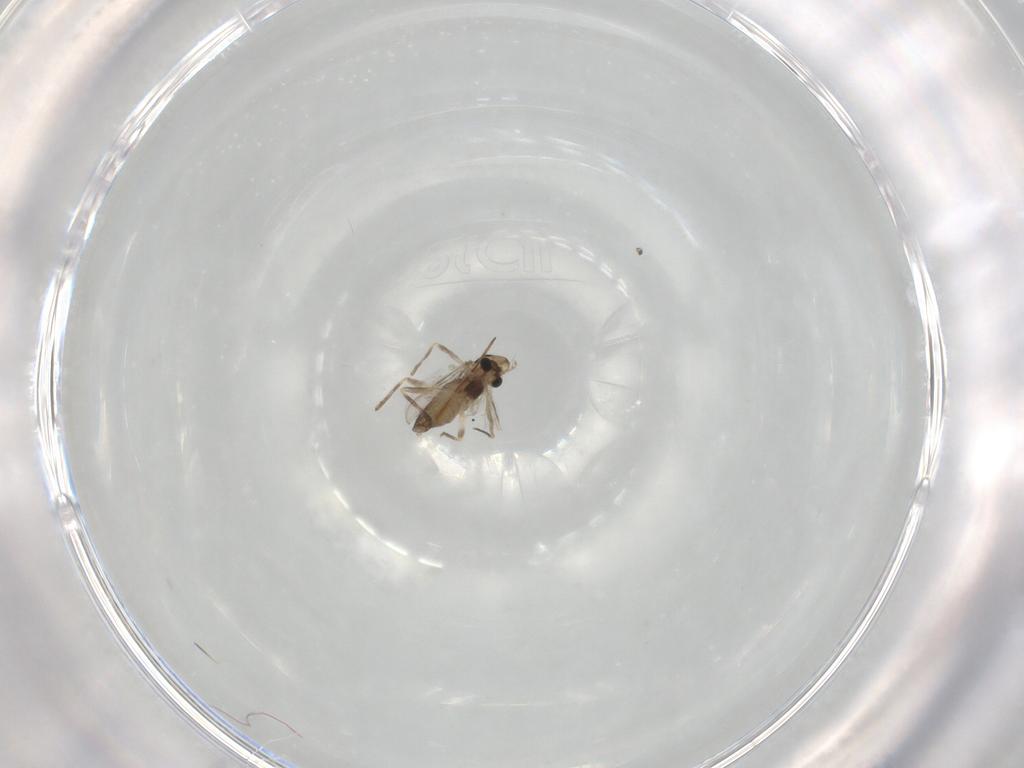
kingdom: Animalia
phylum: Arthropoda
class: Insecta
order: Diptera
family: Chironomidae
